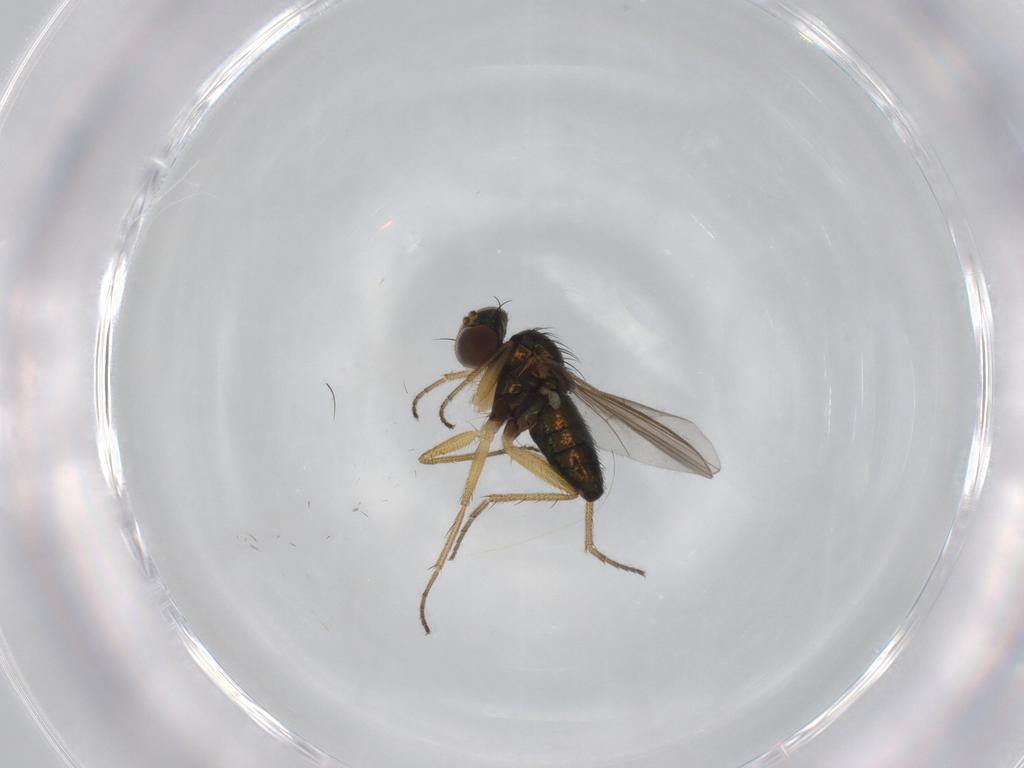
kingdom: Animalia
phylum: Arthropoda
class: Insecta
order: Diptera
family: Dolichopodidae
